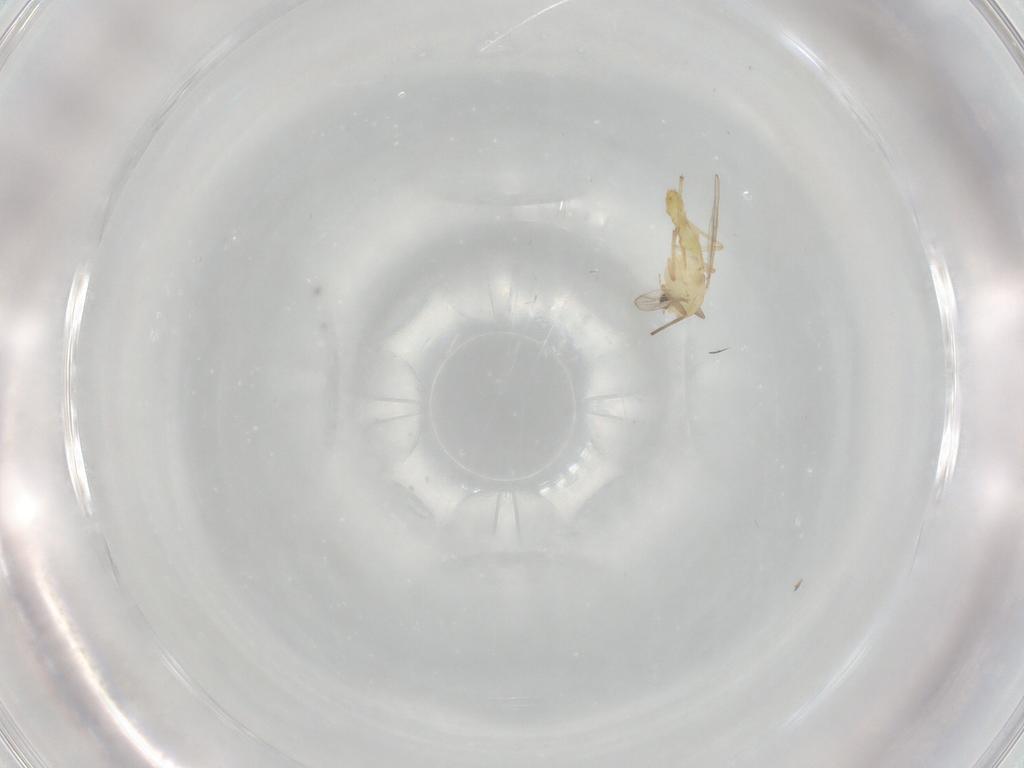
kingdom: Animalia
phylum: Arthropoda
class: Insecta
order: Diptera
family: Chironomidae
